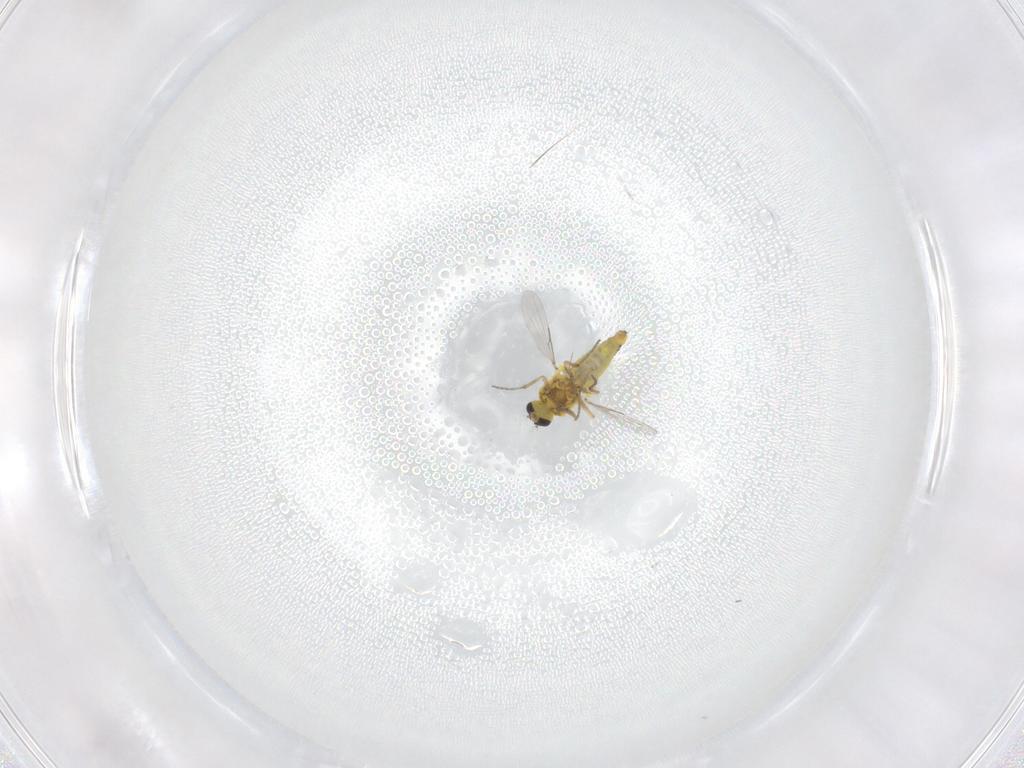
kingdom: Animalia
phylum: Arthropoda
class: Insecta
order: Diptera
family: Ceratopogonidae
